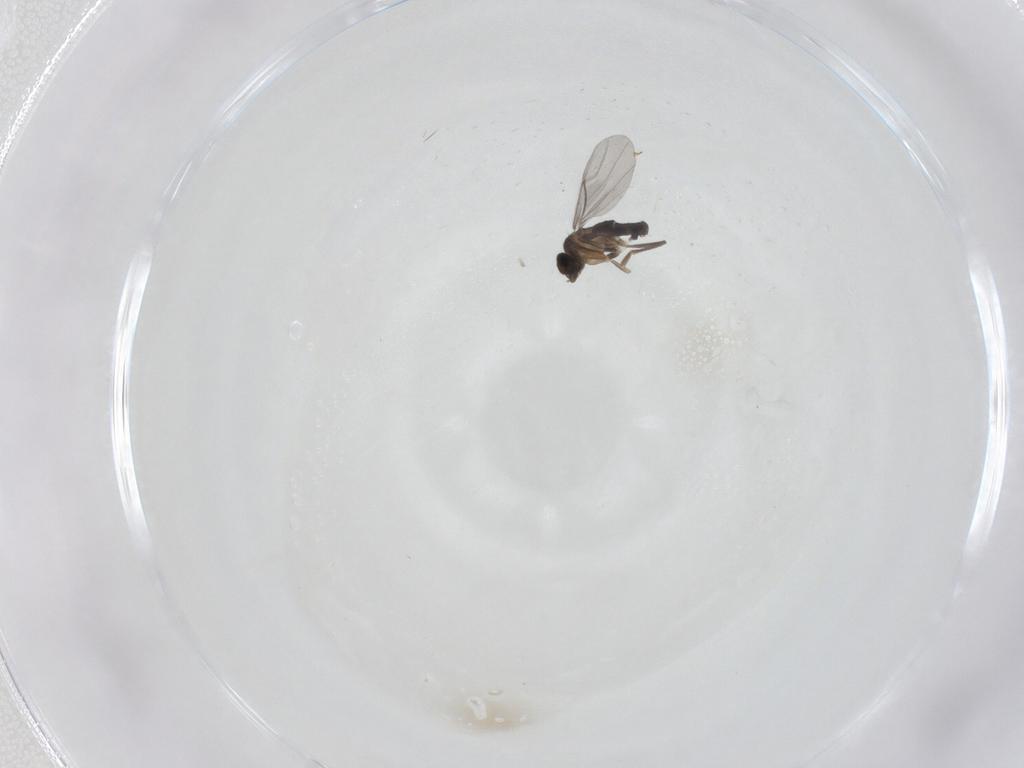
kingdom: Animalia
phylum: Arthropoda
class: Insecta
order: Diptera
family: Phoridae
